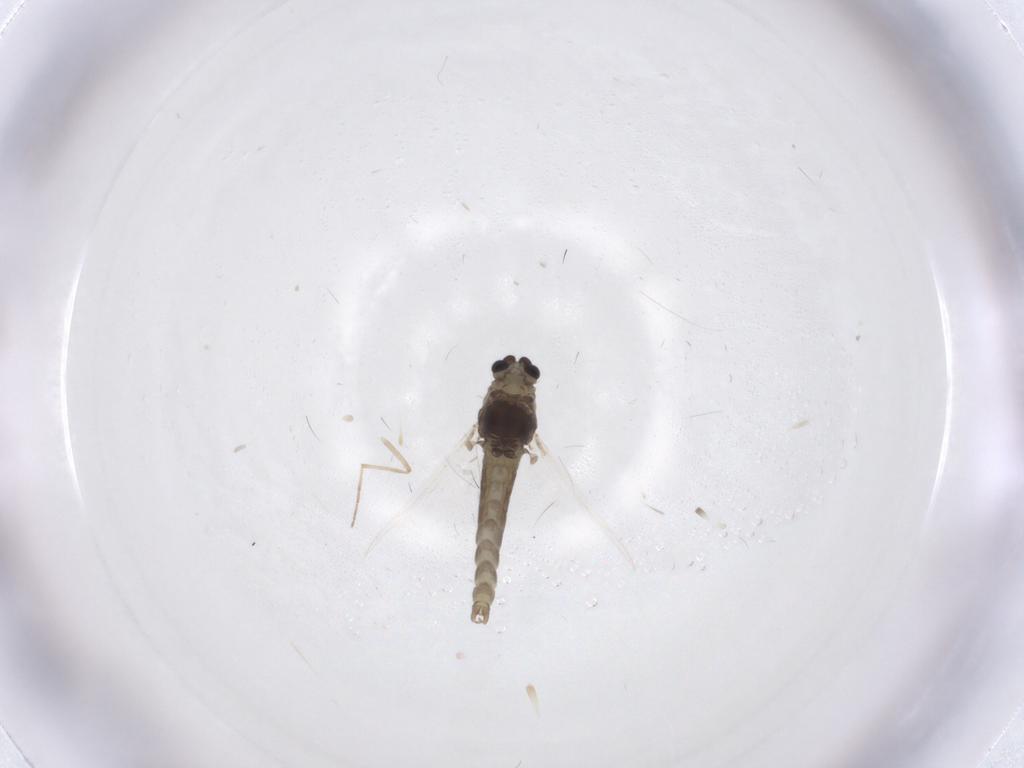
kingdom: Animalia
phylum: Arthropoda
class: Insecta
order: Diptera
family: Chironomidae
